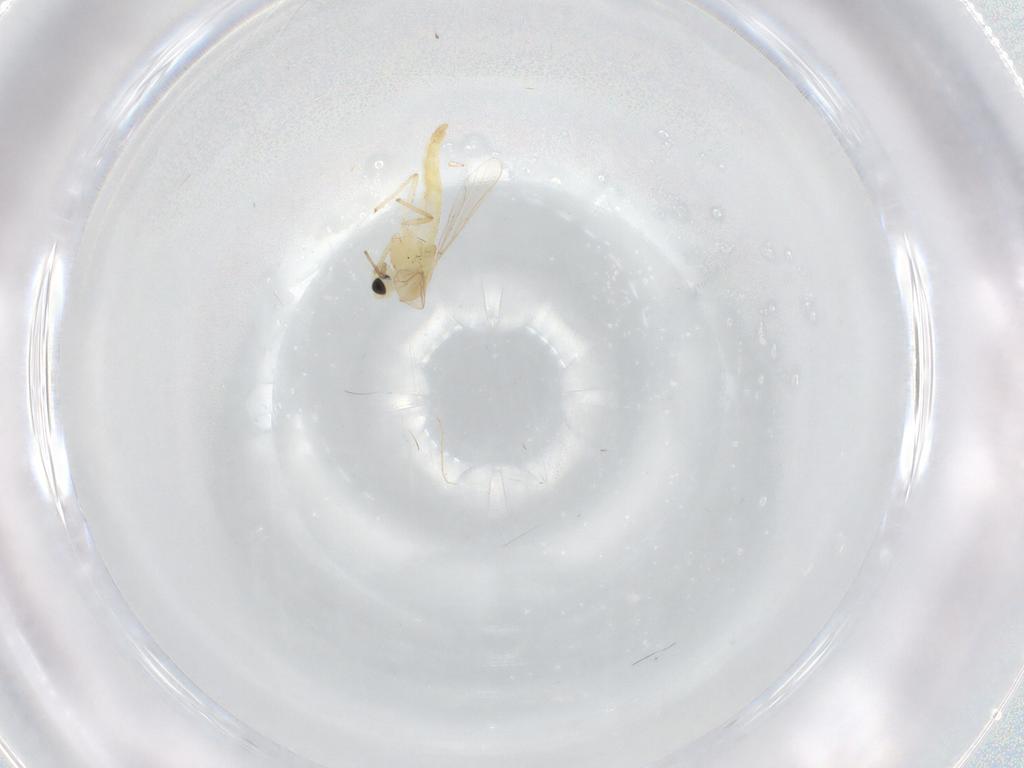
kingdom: Animalia
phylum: Arthropoda
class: Insecta
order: Diptera
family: Chironomidae
